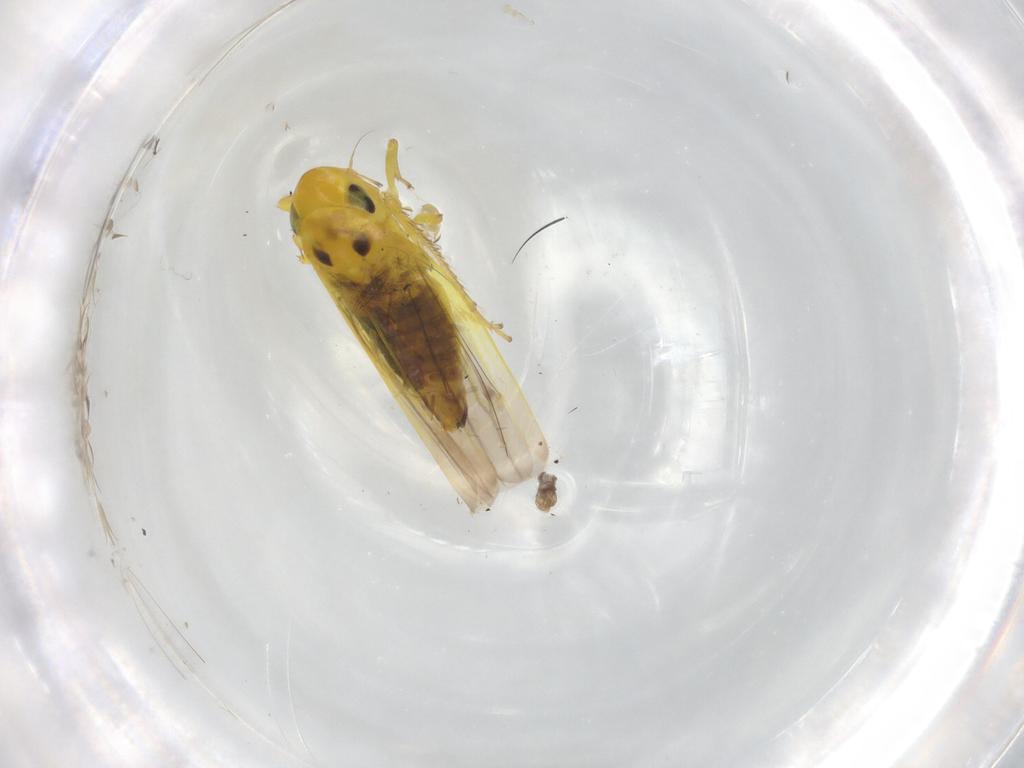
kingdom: Animalia
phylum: Arthropoda
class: Insecta
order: Hemiptera
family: Cicadellidae
